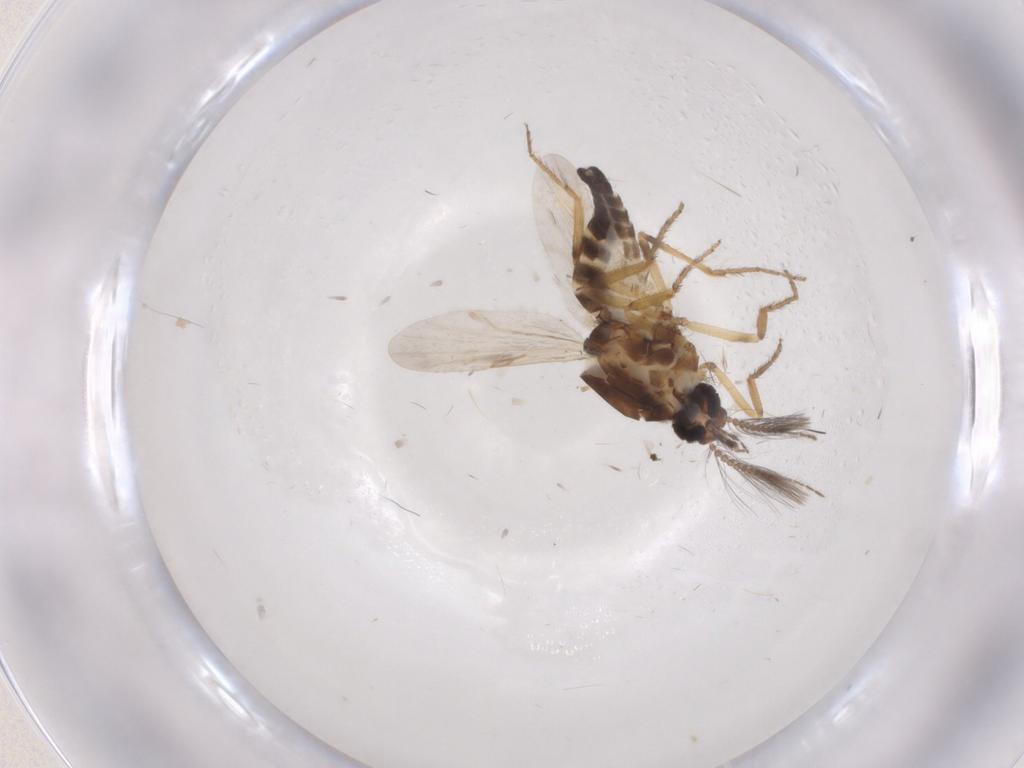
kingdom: Animalia
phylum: Arthropoda
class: Insecta
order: Diptera
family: Ceratopogonidae
